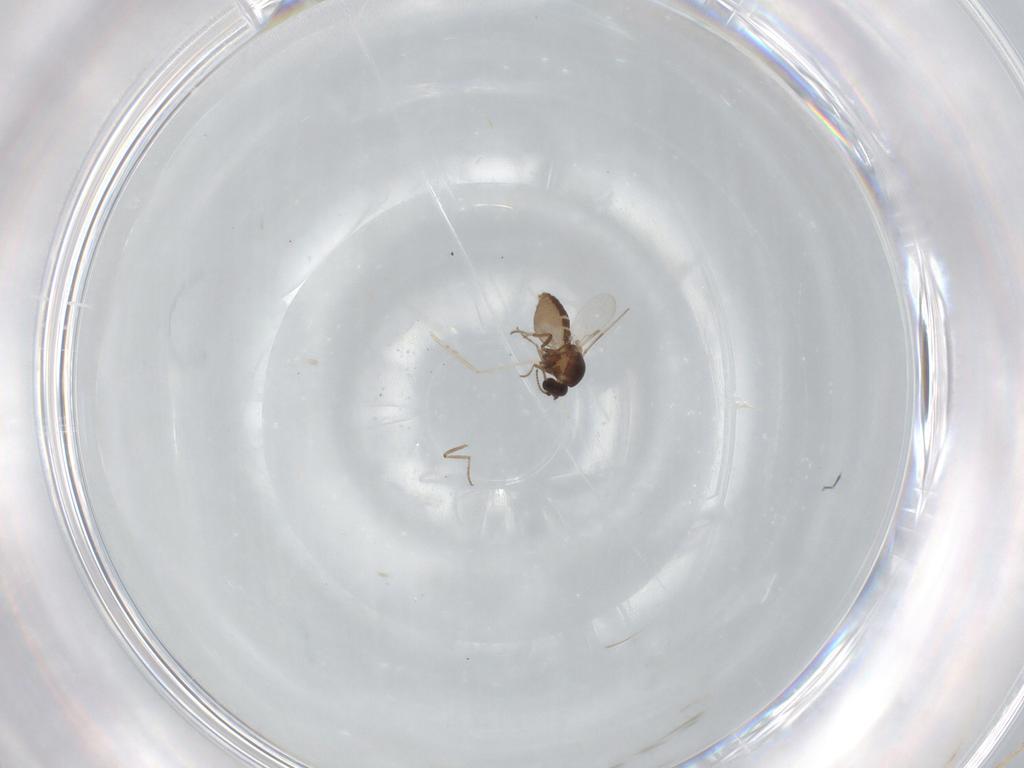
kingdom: Animalia
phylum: Arthropoda
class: Insecta
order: Diptera
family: Ceratopogonidae
